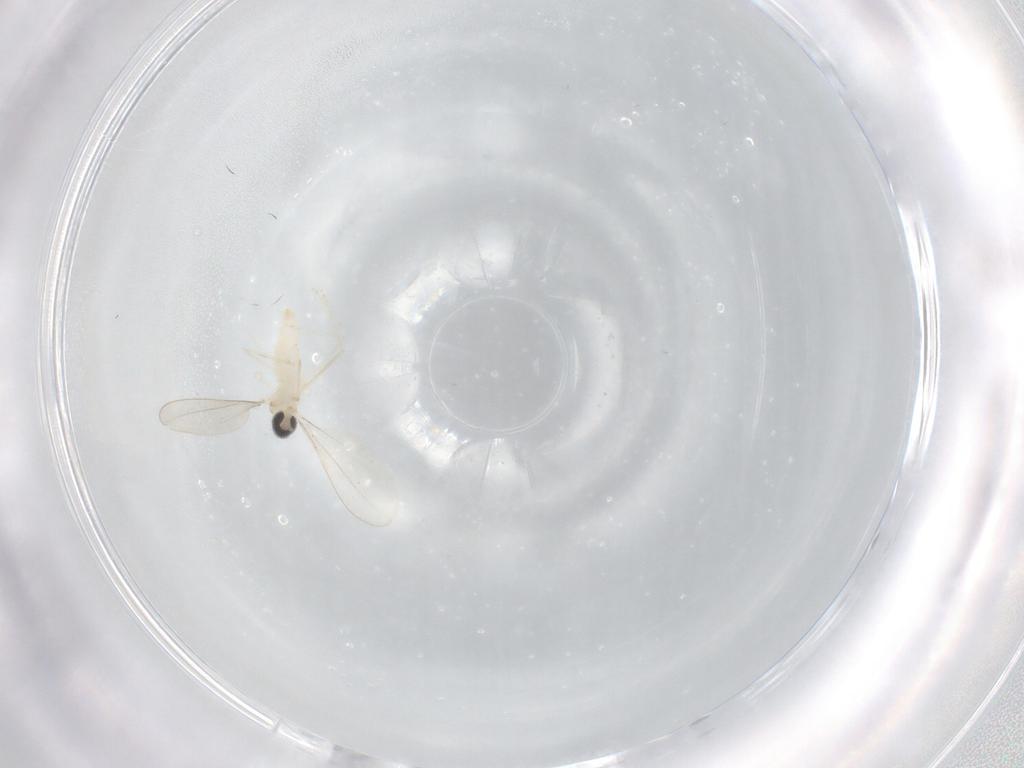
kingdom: Animalia
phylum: Arthropoda
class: Insecta
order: Diptera
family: Cecidomyiidae
